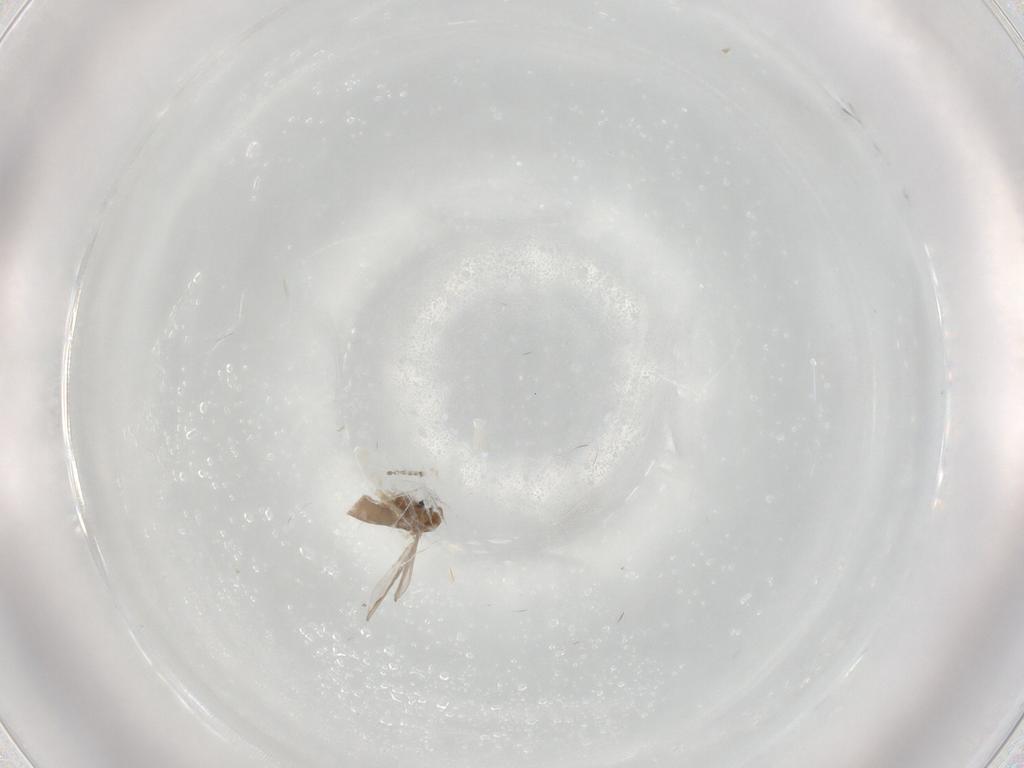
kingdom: Animalia
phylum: Arthropoda
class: Insecta
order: Diptera
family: Chironomidae
